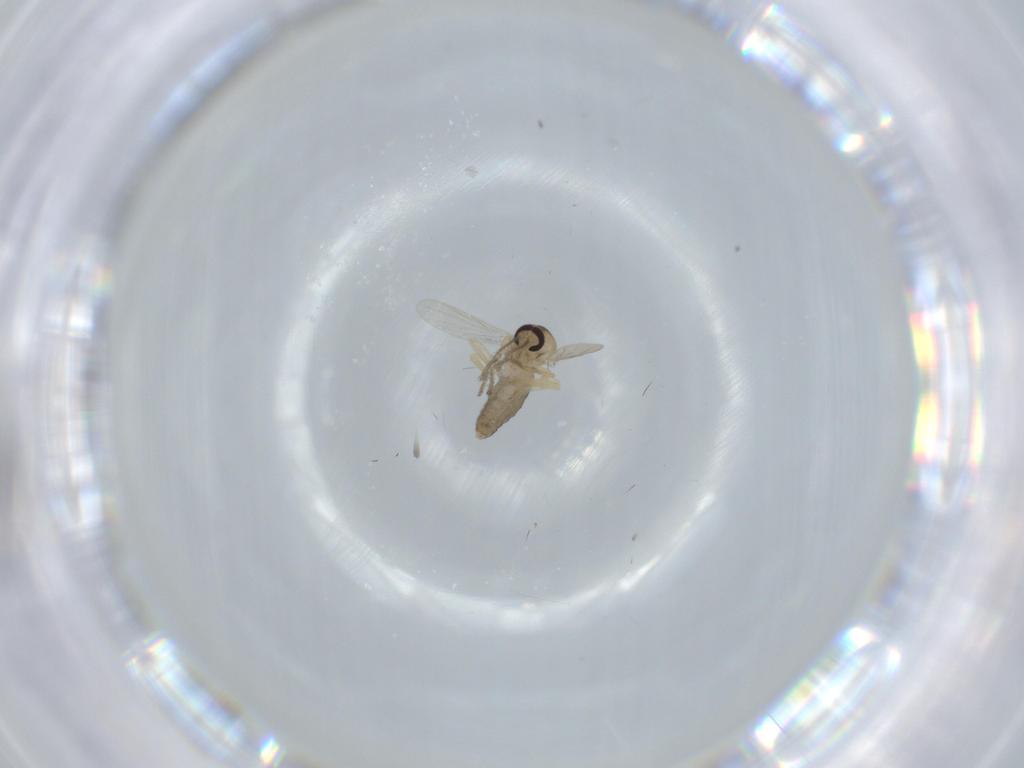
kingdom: Animalia
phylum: Arthropoda
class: Insecta
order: Diptera
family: Ceratopogonidae
